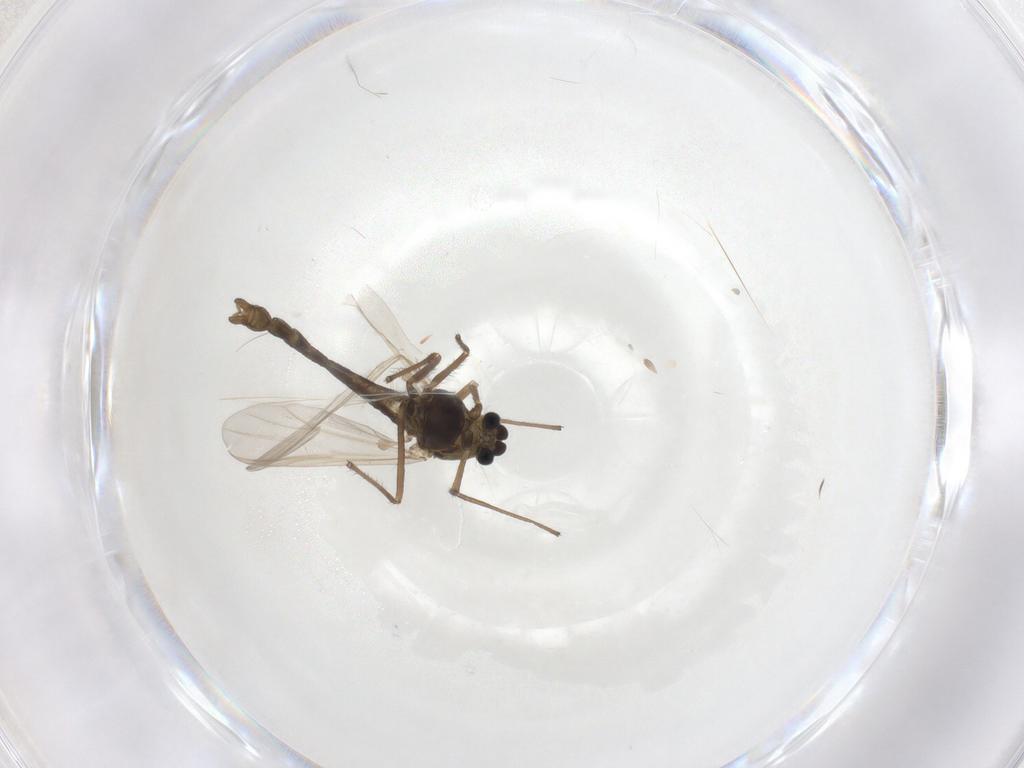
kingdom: Animalia
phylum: Arthropoda
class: Insecta
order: Diptera
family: Chironomidae
